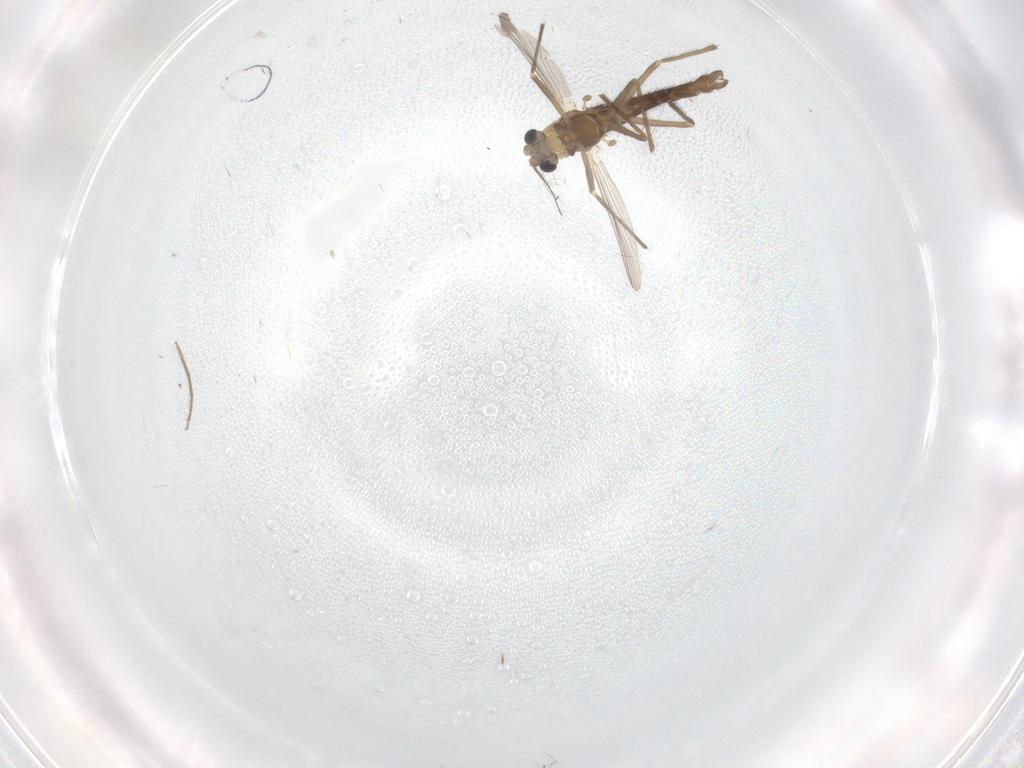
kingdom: Animalia
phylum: Arthropoda
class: Insecta
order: Diptera
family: Chironomidae
